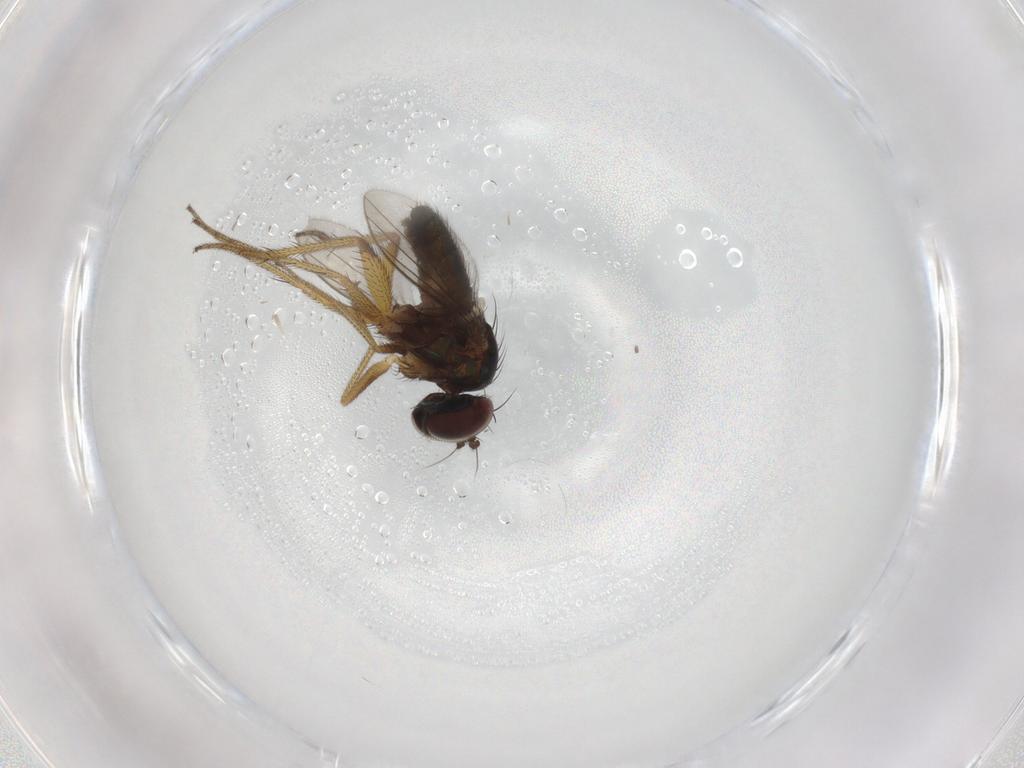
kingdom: Animalia
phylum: Arthropoda
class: Insecta
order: Diptera
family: Dolichopodidae
